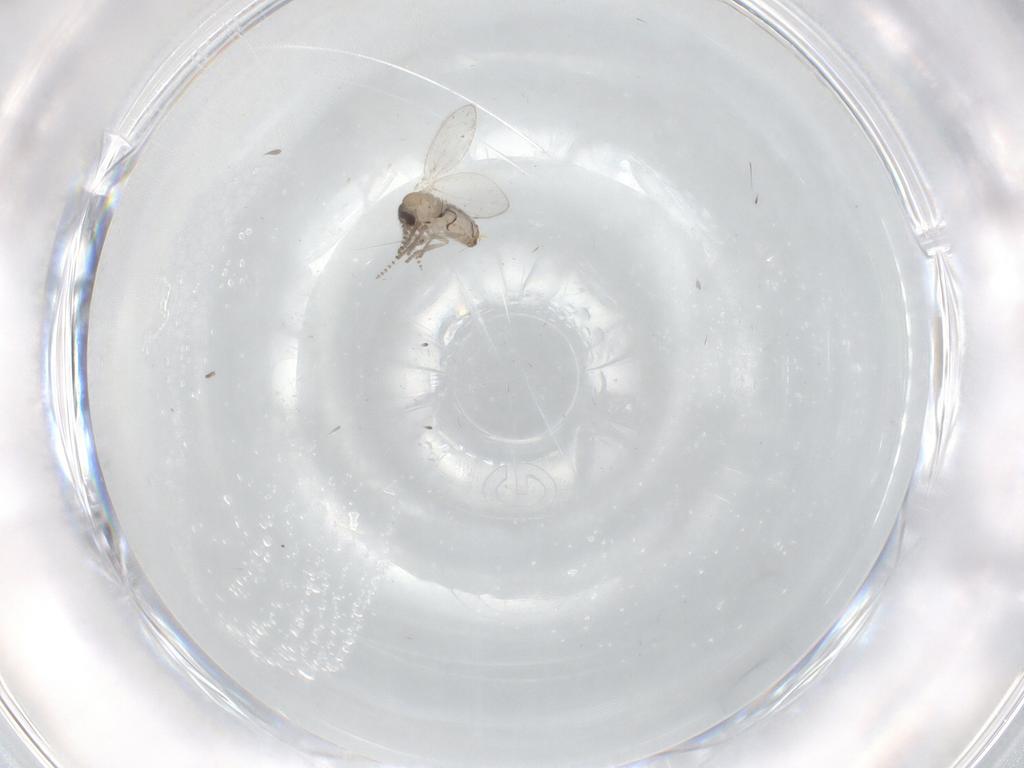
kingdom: Animalia
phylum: Arthropoda
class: Insecta
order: Diptera
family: Psychodidae
